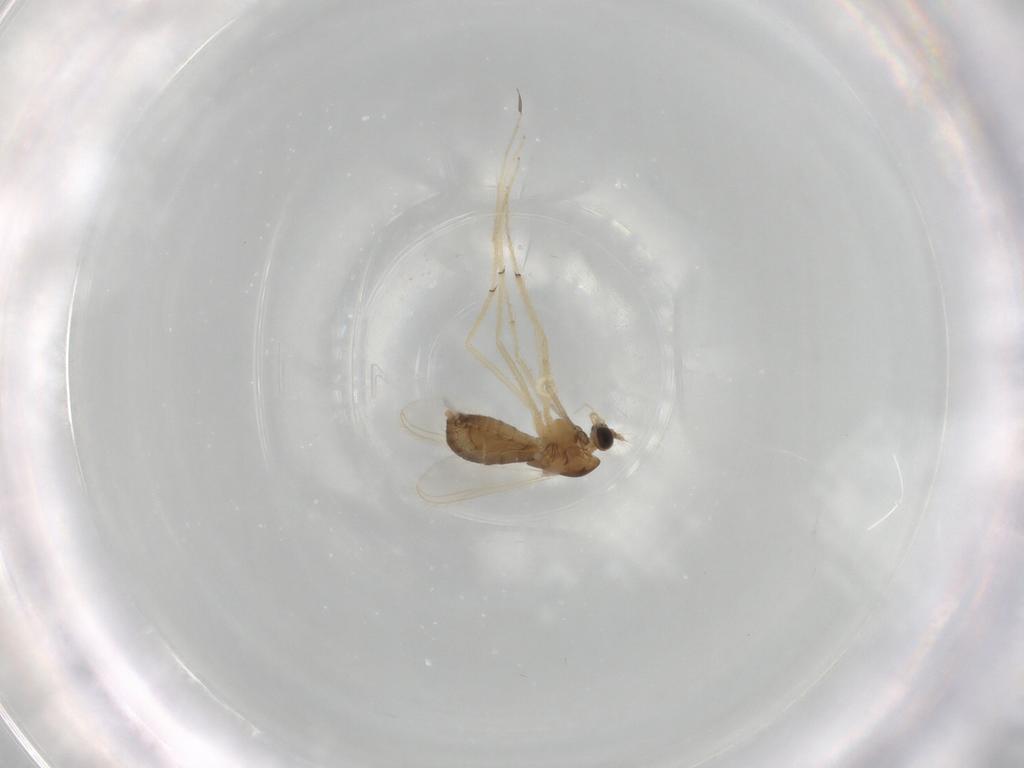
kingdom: Animalia
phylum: Arthropoda
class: Insecta
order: Diptera
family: Chironomidae
